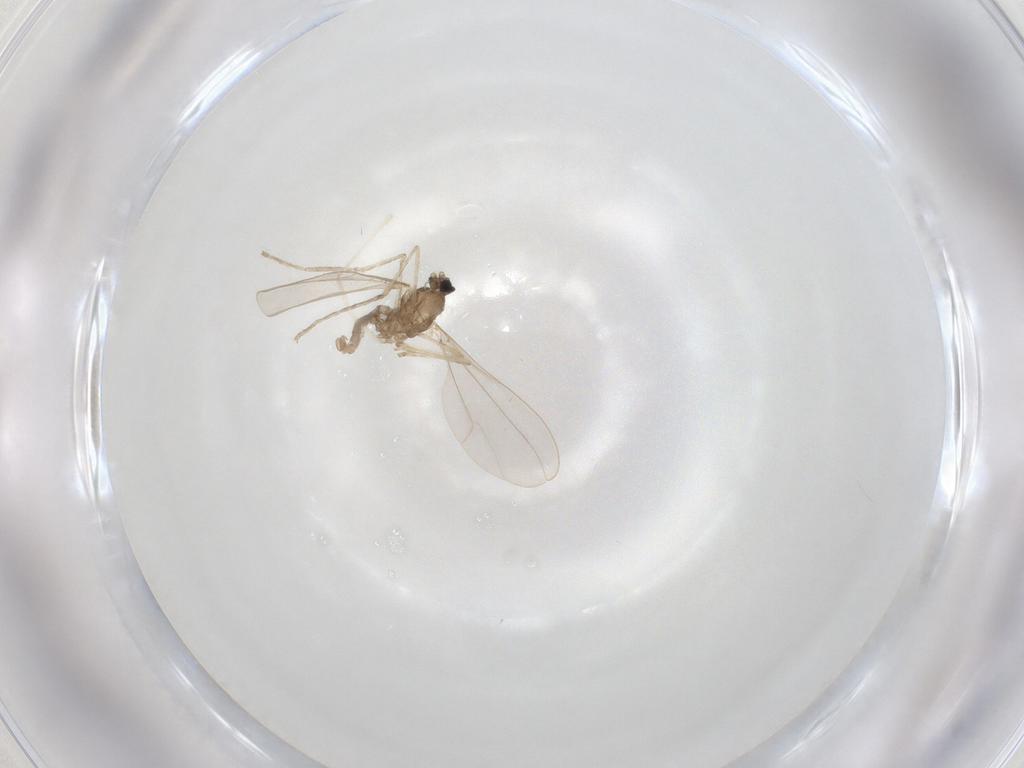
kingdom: Animalia
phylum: Arthropoda
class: Insecta
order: Diptera
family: Cecidomyiidae
